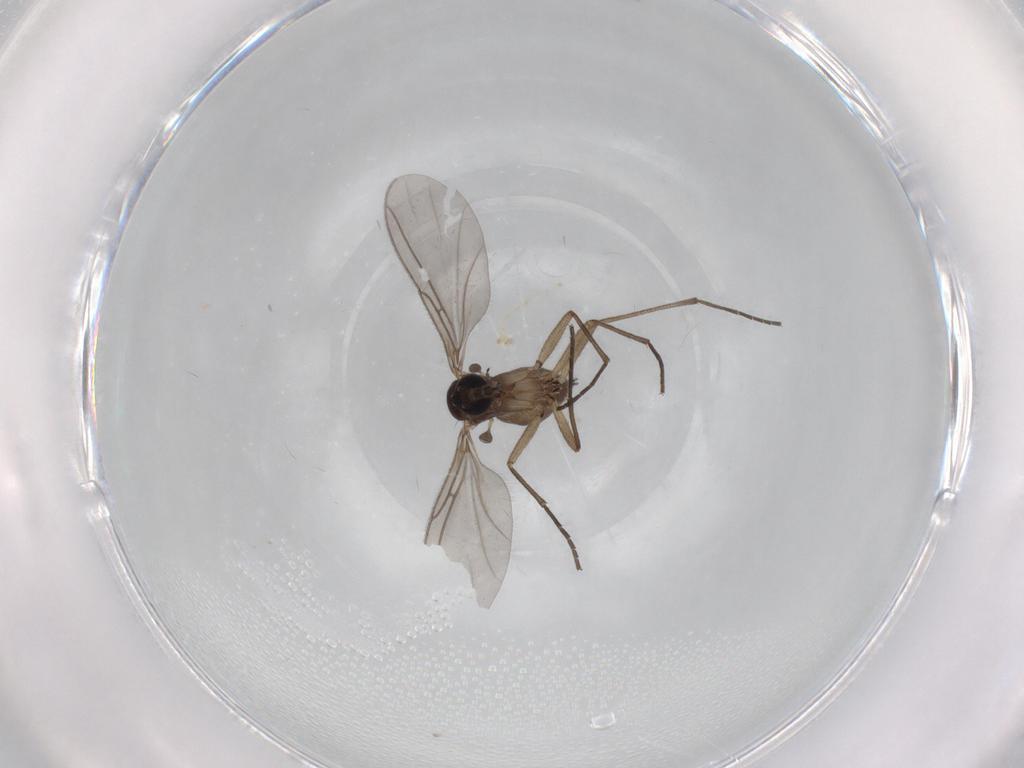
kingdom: Animalia
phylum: Arthropoda
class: Insecta
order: Diptera
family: Sciaridae
